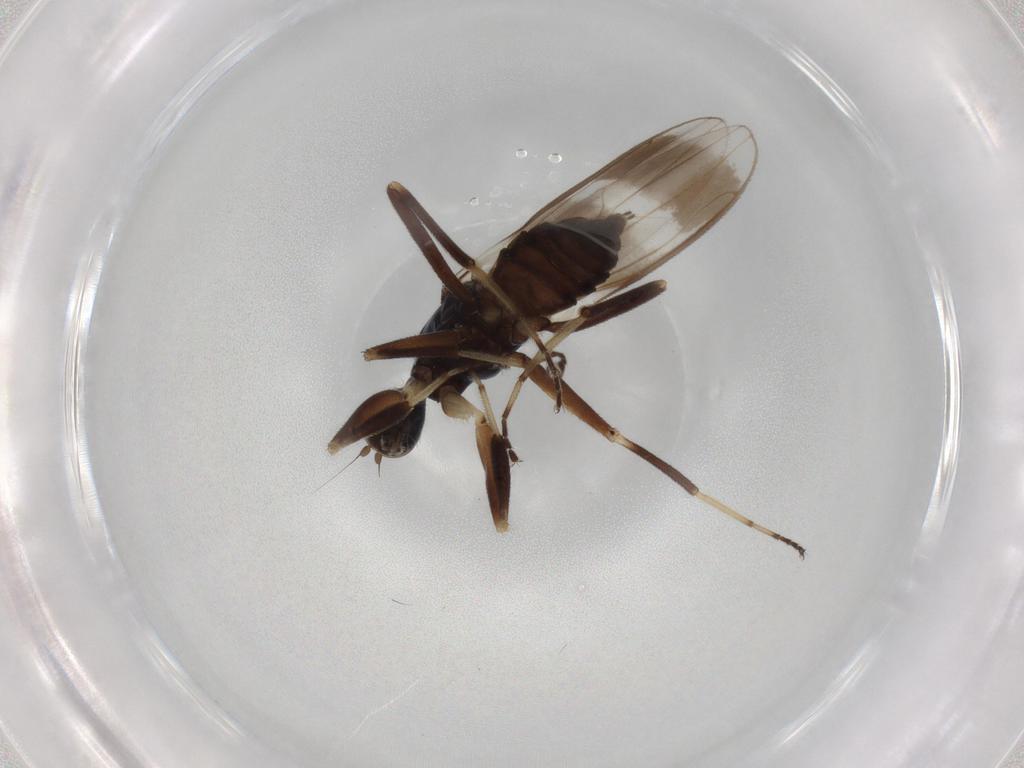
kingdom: Animalia
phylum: Arthropoda
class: Insecta
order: Diptera
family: Hybotidae
